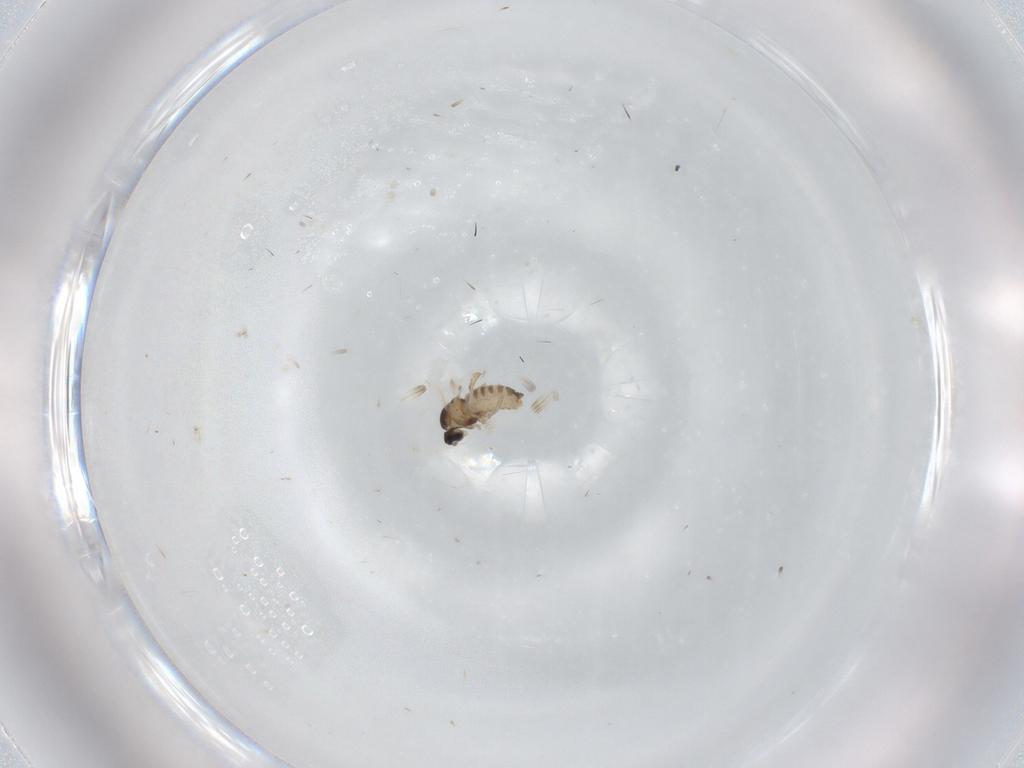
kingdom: Animalia
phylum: Arthropoda
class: Insecta
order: Diptera
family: Cecidomyiidae
